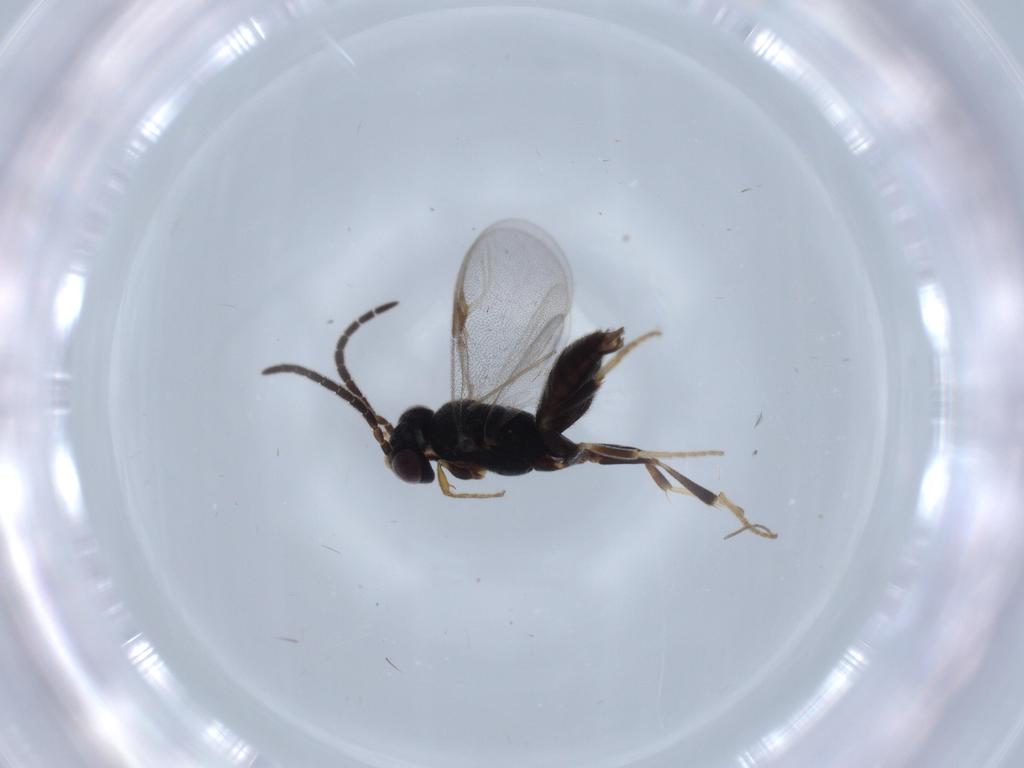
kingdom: Animalia
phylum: Arthropoda
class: Insecta
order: Hymenoptera
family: Dryinidae
